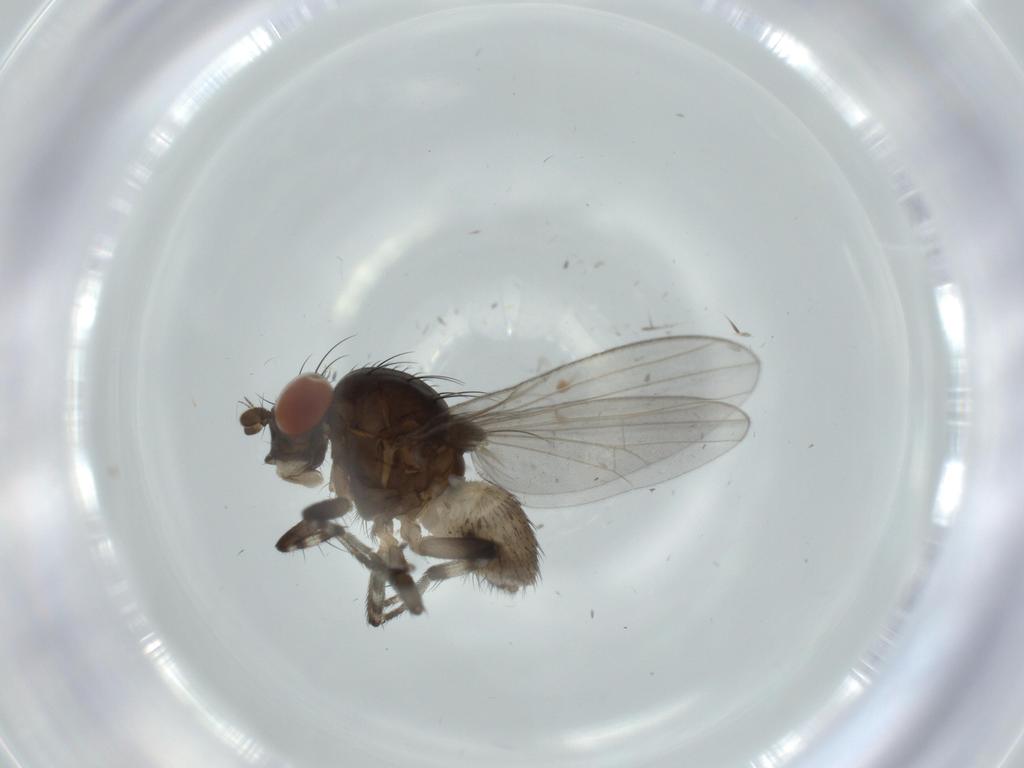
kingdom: Animalia
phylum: Arthropoda
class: Insecta
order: Diptera
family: Lauxaniidae
